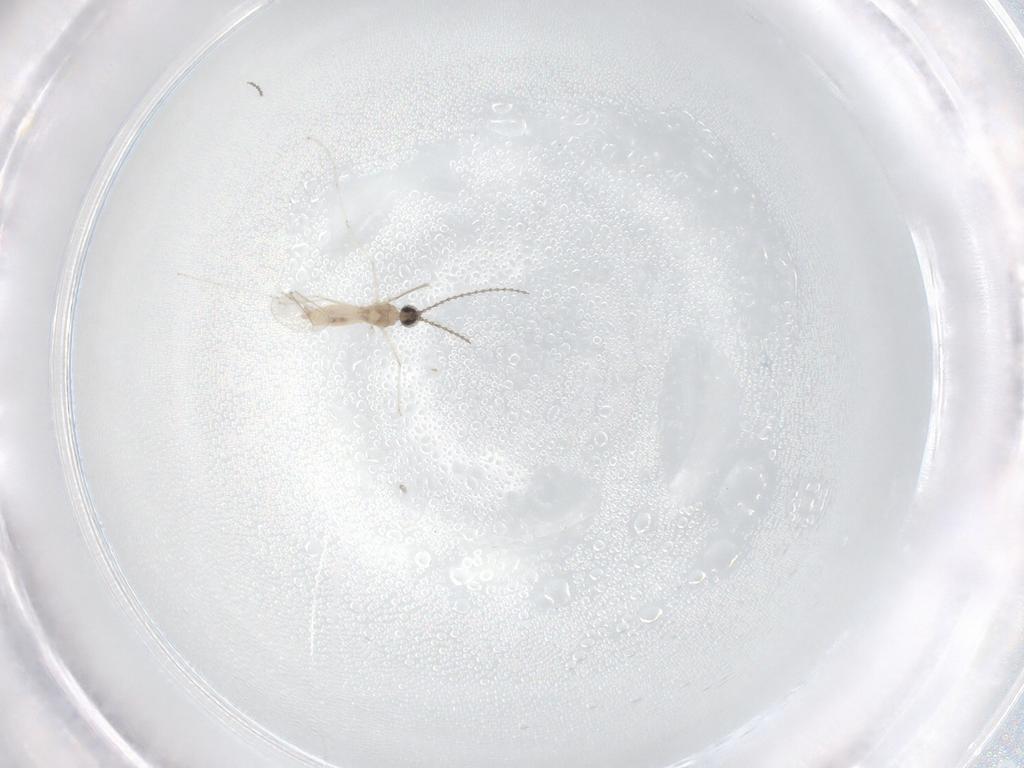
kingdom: Animalia
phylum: Arthropoda
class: Insecta
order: Diptera
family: Cecidomyiidae
